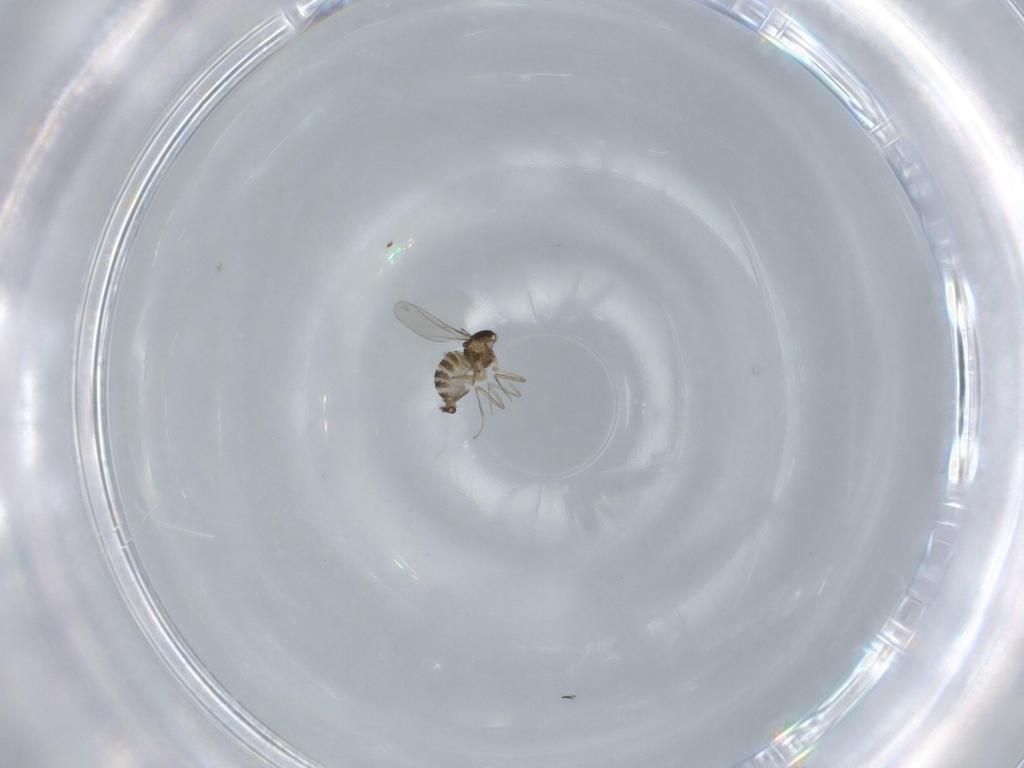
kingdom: Animalia
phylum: Arthropoda
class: Insecta
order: Diptera
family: Cecidomyiidae
